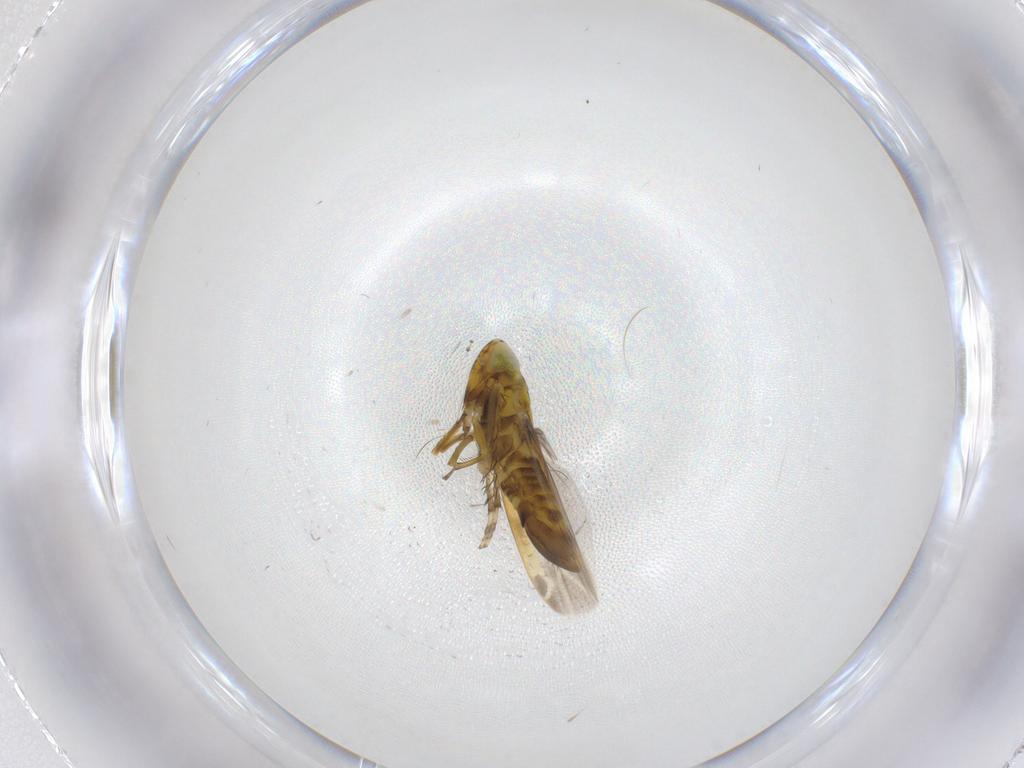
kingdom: Animalia
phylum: Arthropoda
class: Insecta
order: Hemiptera
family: Cicadellidae
